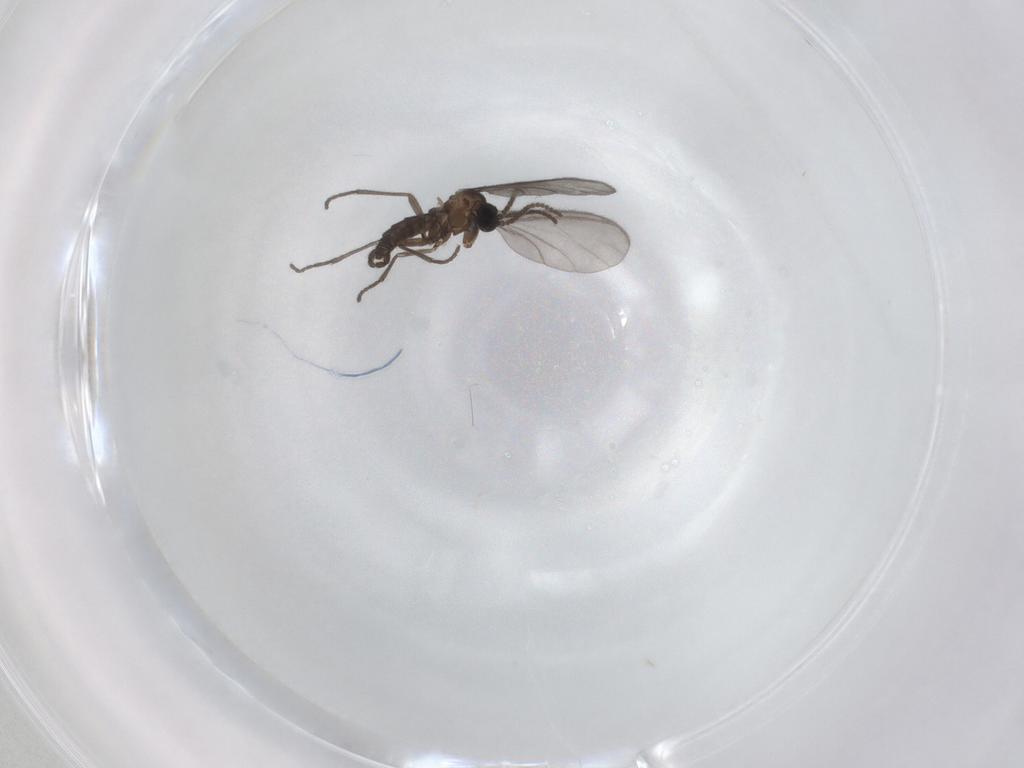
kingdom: Animalia
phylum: Arthropoda
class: Insecta
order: Diptera
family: Sciaridae
